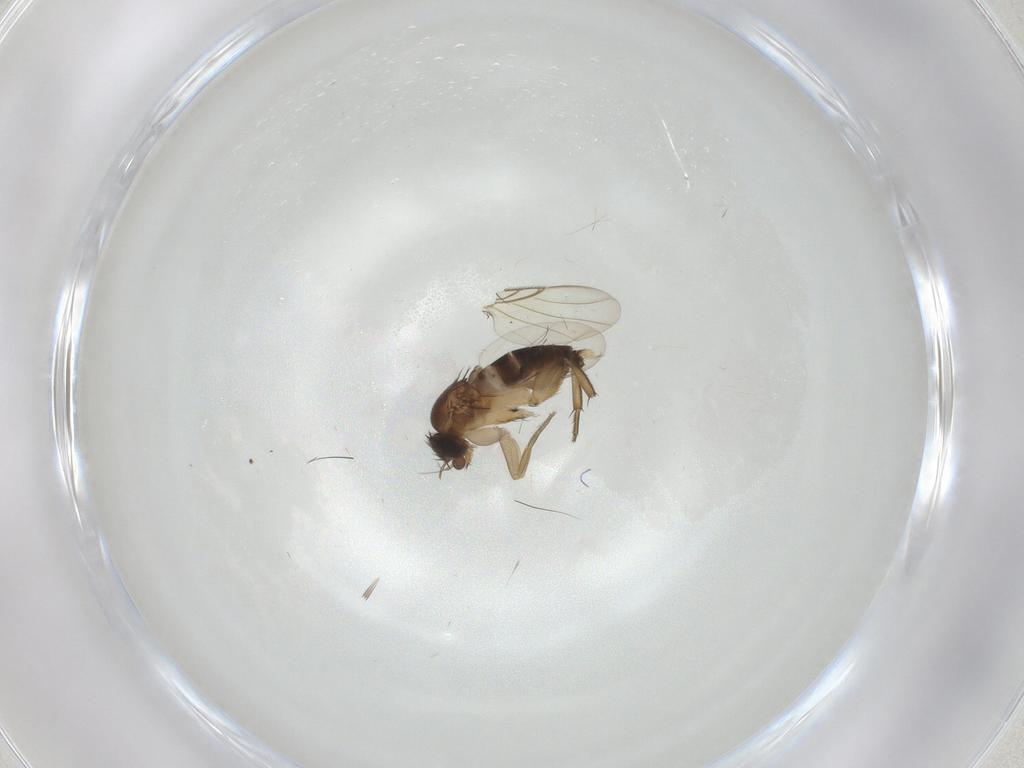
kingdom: Animalia
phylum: Arthropoda
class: Insecta
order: Diptera
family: Phoridae
